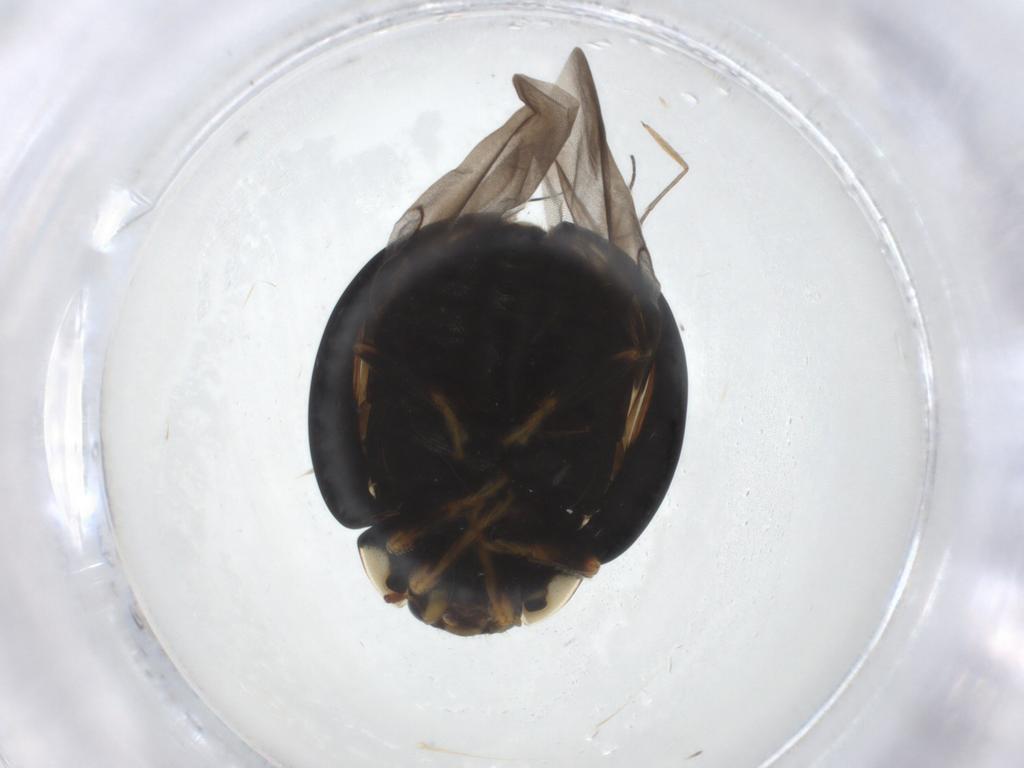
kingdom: Animalia
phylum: Arthropoda
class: Insecta
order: Coleoptera
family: Coccinellidae
